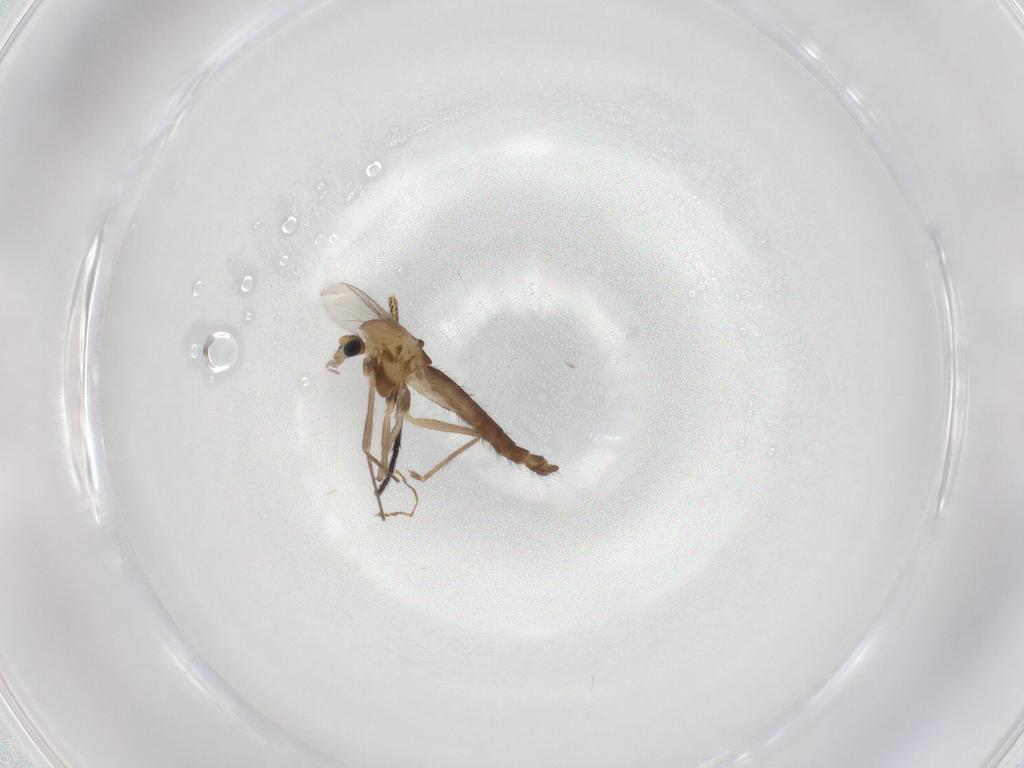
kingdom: Animalia
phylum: Arthropoda
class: Insecta
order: Diptera
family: Chironomidae
